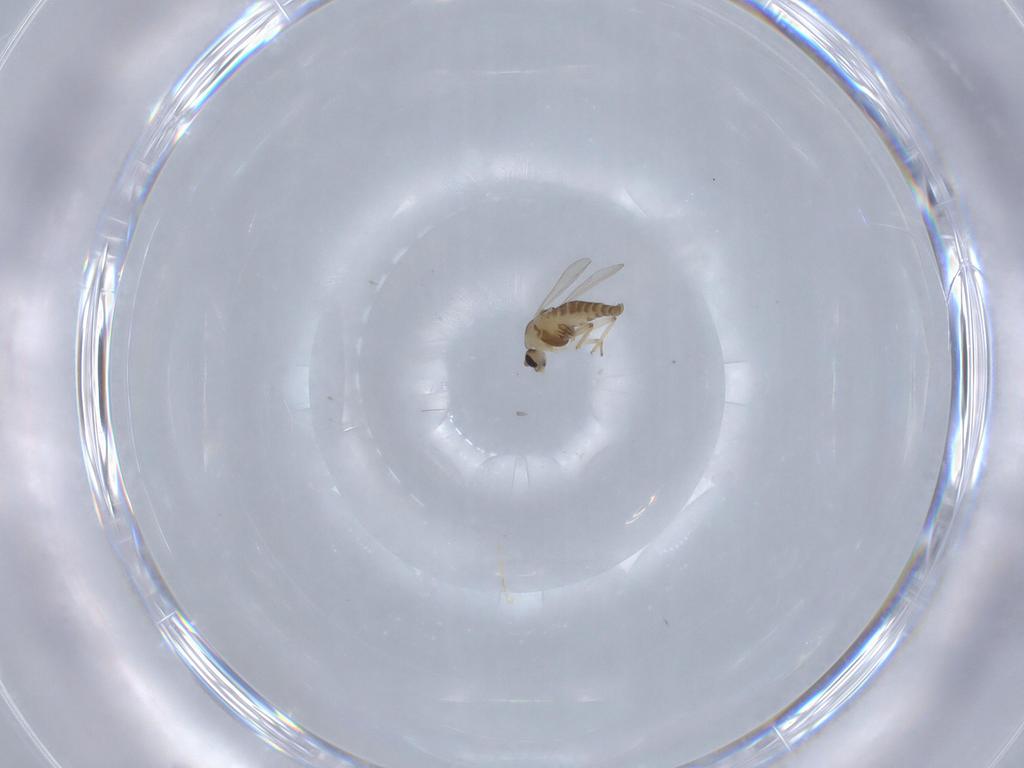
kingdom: Animalia
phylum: Arthropoda
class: Insecta
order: Diptera
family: Chironomidae
